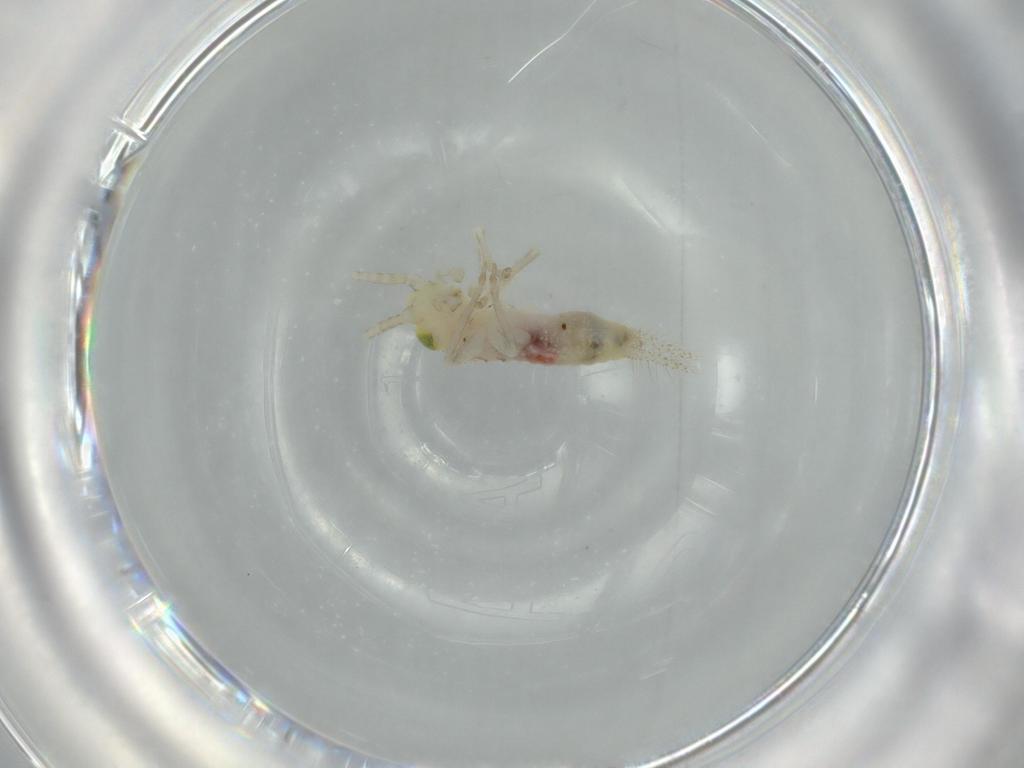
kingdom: Animalia
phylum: Arthropoda
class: Insecta
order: Orthoptera
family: Trigonidiidae
